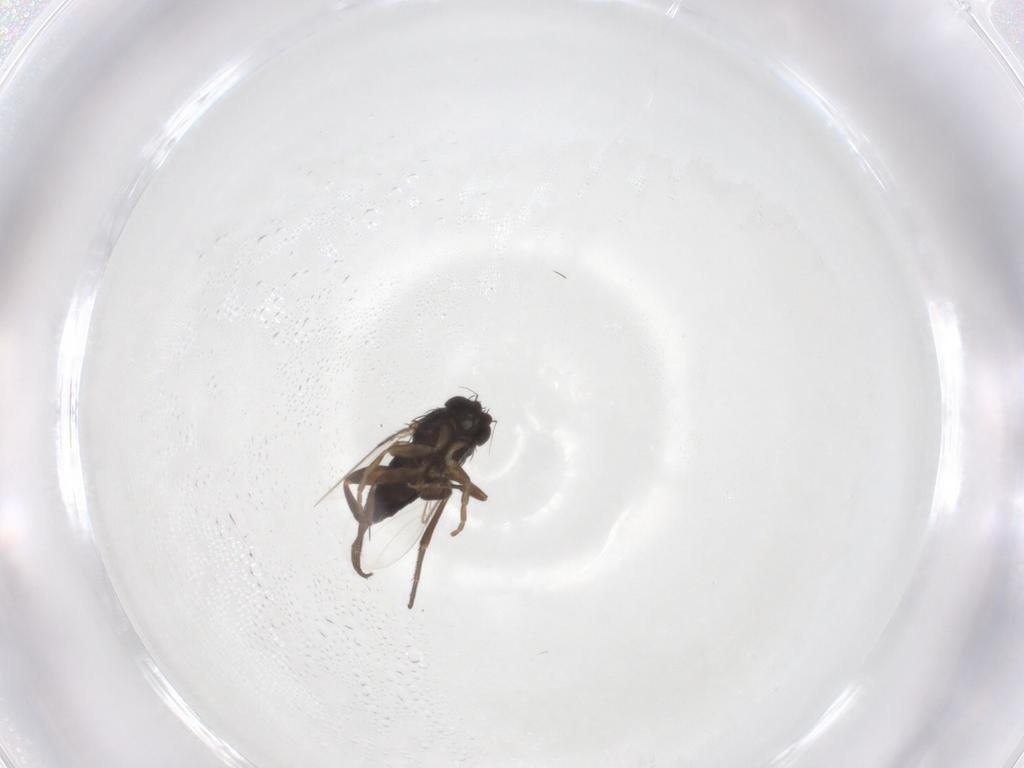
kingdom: Animalia
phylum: Arthropoda
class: Insecta
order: Diptera
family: Phoridae
